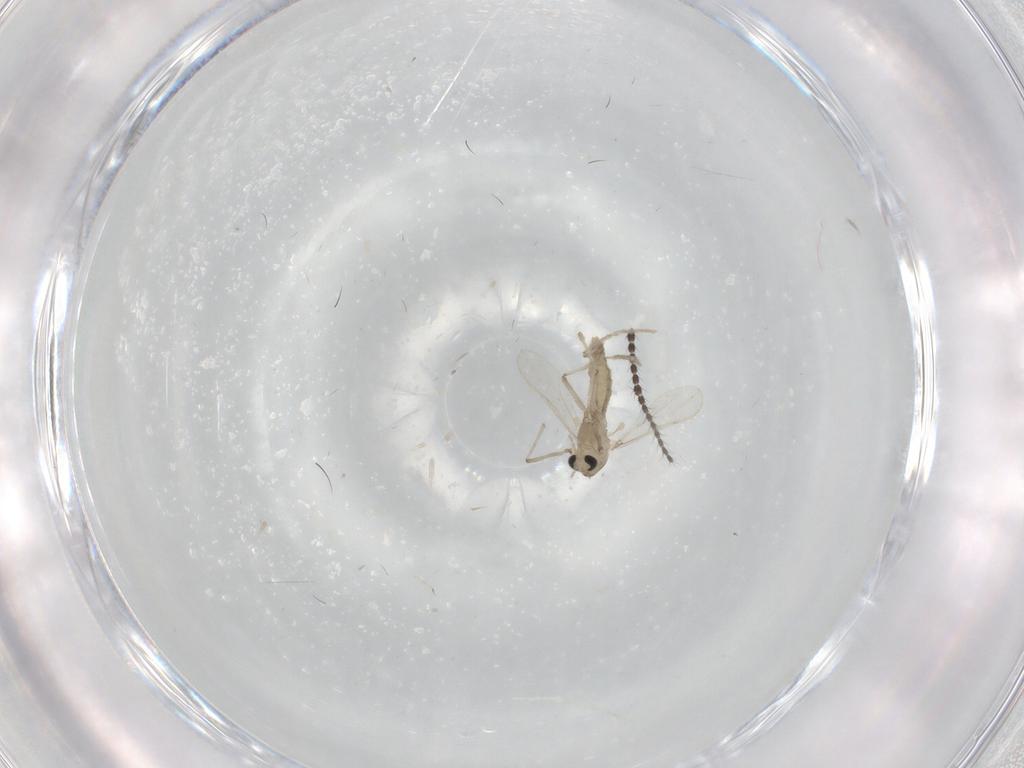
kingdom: Animalia
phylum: Arthropoda
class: Insecta
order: Diptera
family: Chironomidae
